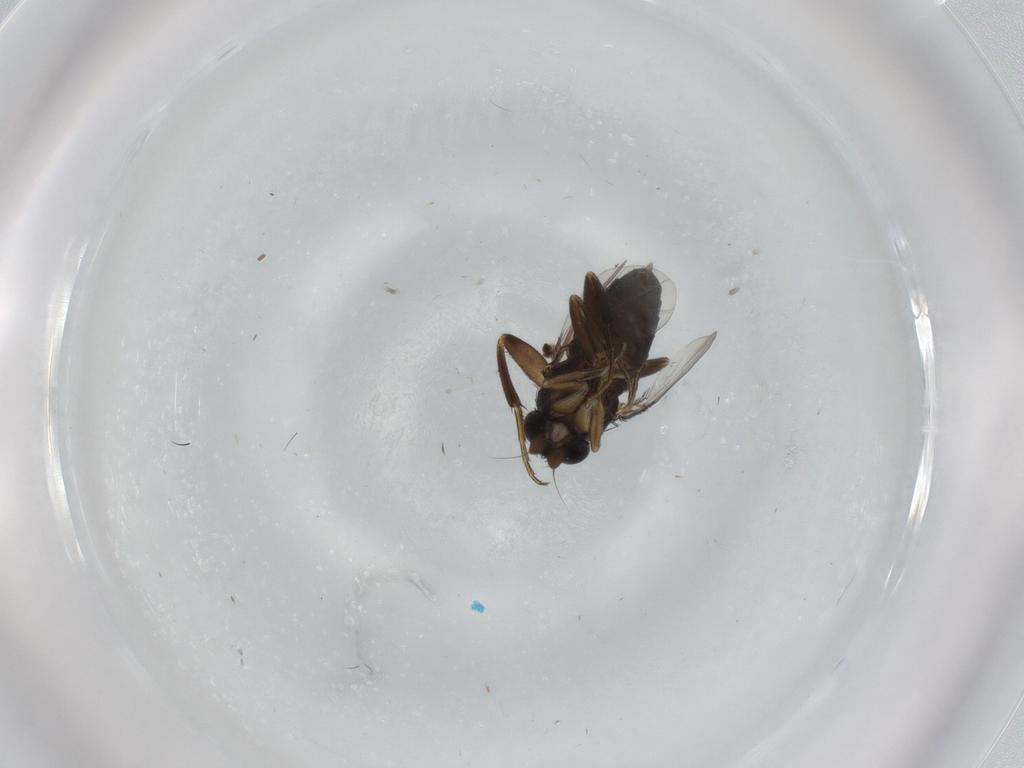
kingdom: Animalia
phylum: Arthropoda
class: Insecta
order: Diptera
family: Phoridae
